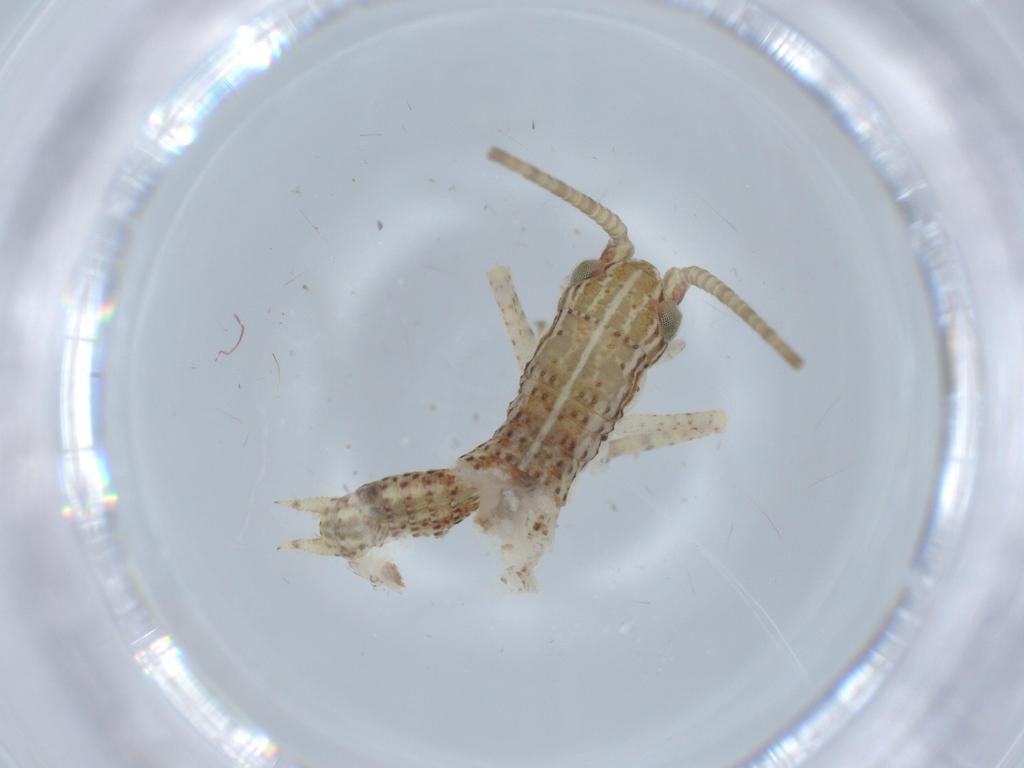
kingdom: Animalia
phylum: Arthropoda
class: Insecta
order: Orthoptera
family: Gryllidae
